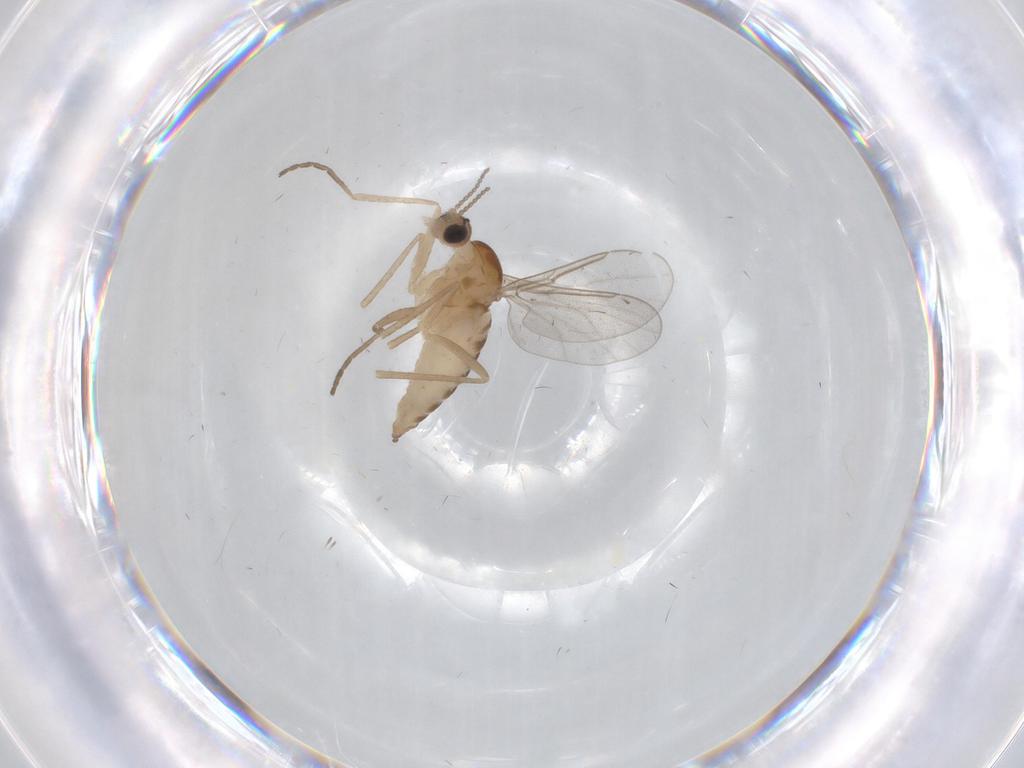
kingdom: Animalia
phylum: Arthropoda
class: Insecta
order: Diptera
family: Cecidomyiidae
